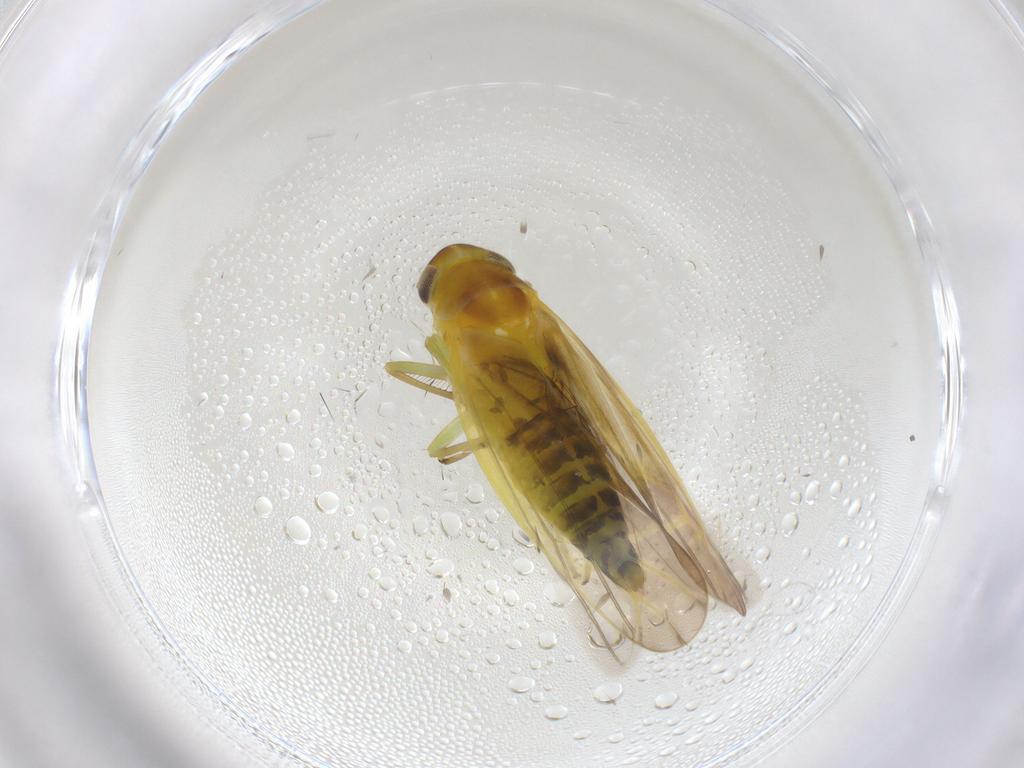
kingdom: Animalia
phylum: Arthropoda
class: Insecta
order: Hemiptera
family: Cicadellidae
